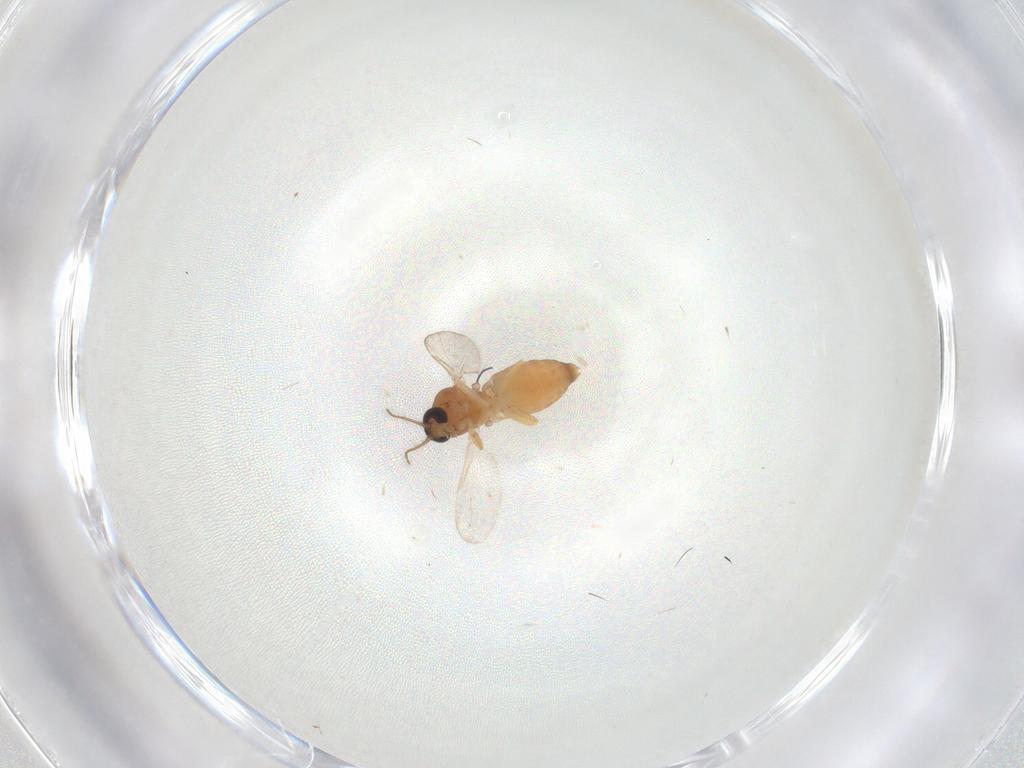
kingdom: Animalia
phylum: Arthropoda
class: Insecta
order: Diptera
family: Ceratopogonidae
